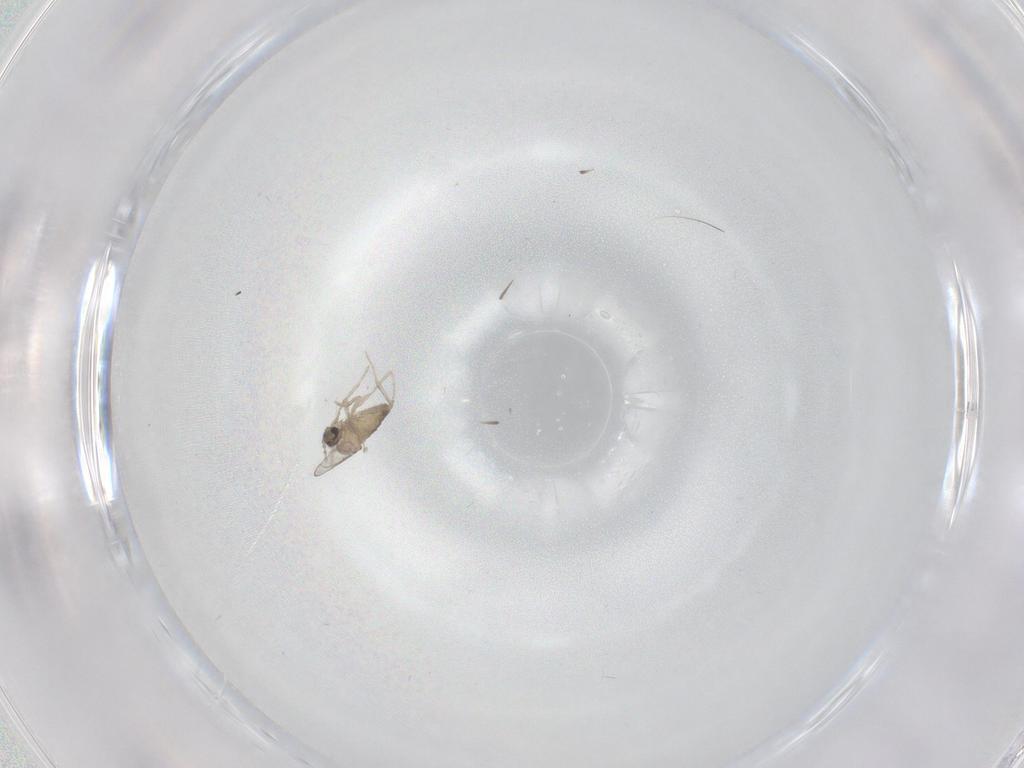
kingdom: Animalia
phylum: Arthropoda
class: Insecta
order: Diptera
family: Cecidomyiidae
